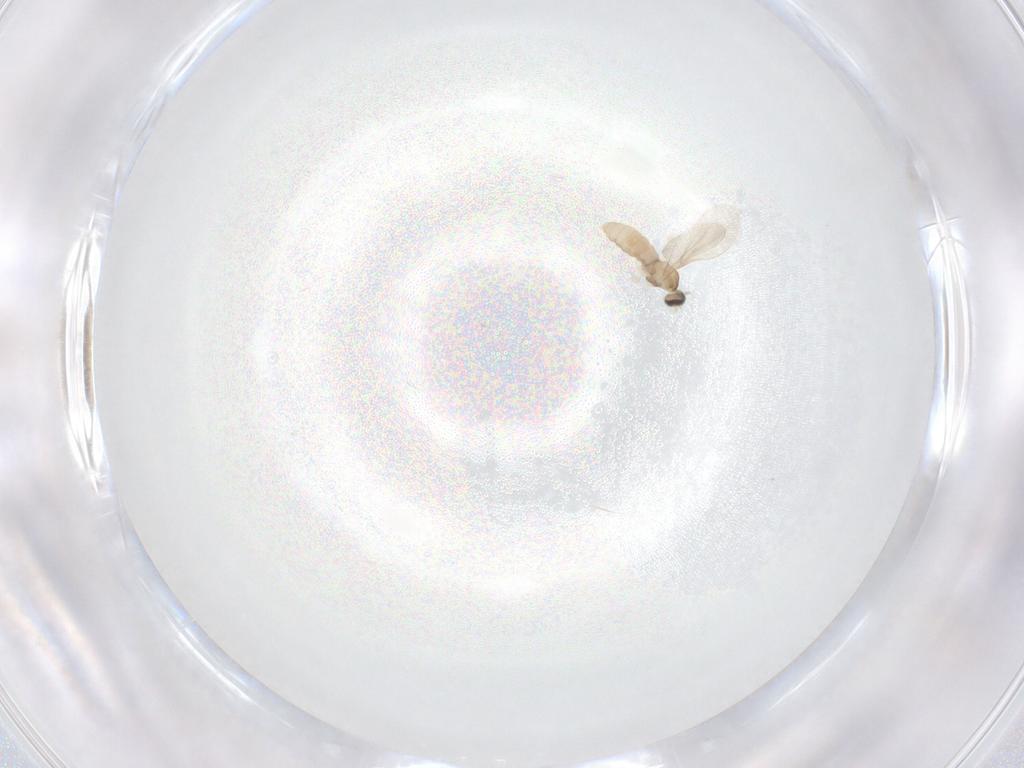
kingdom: Animalia
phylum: Arthropoda
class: Insecta
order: Diptera
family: Cecidomyiidae
